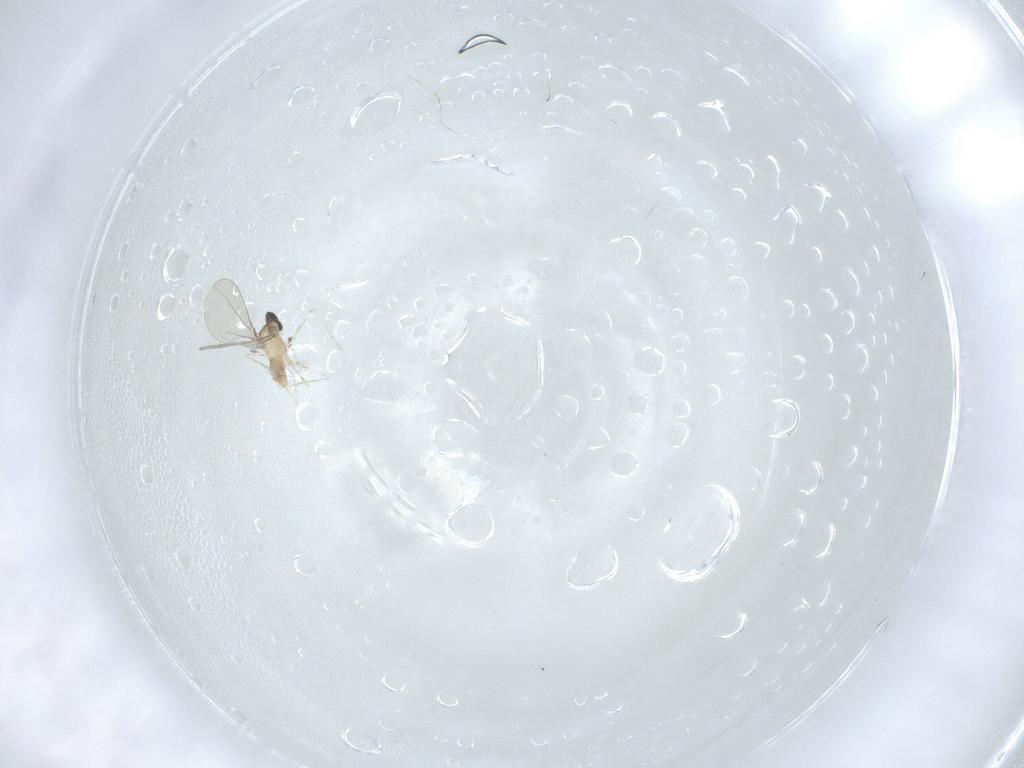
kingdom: Animalia
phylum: Arthropoda
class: Insecta
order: Diptera
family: Cecidomyiidae
